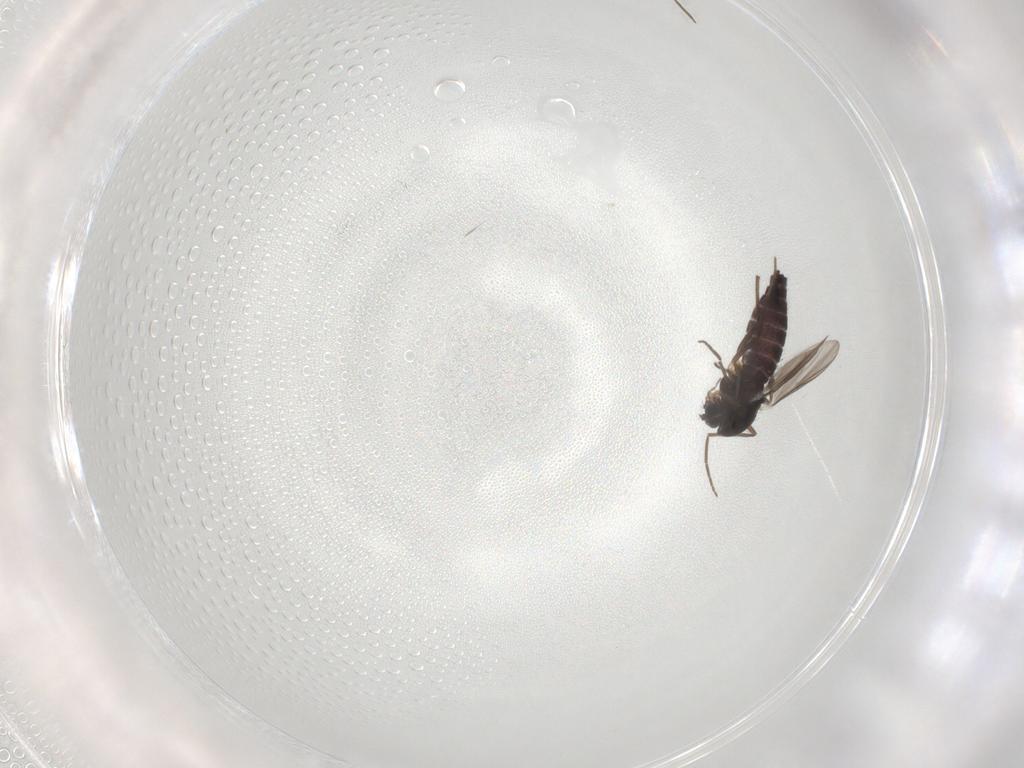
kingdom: Animalia
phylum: Arthropoda
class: Insecta
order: Diptera
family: Chironomidae
